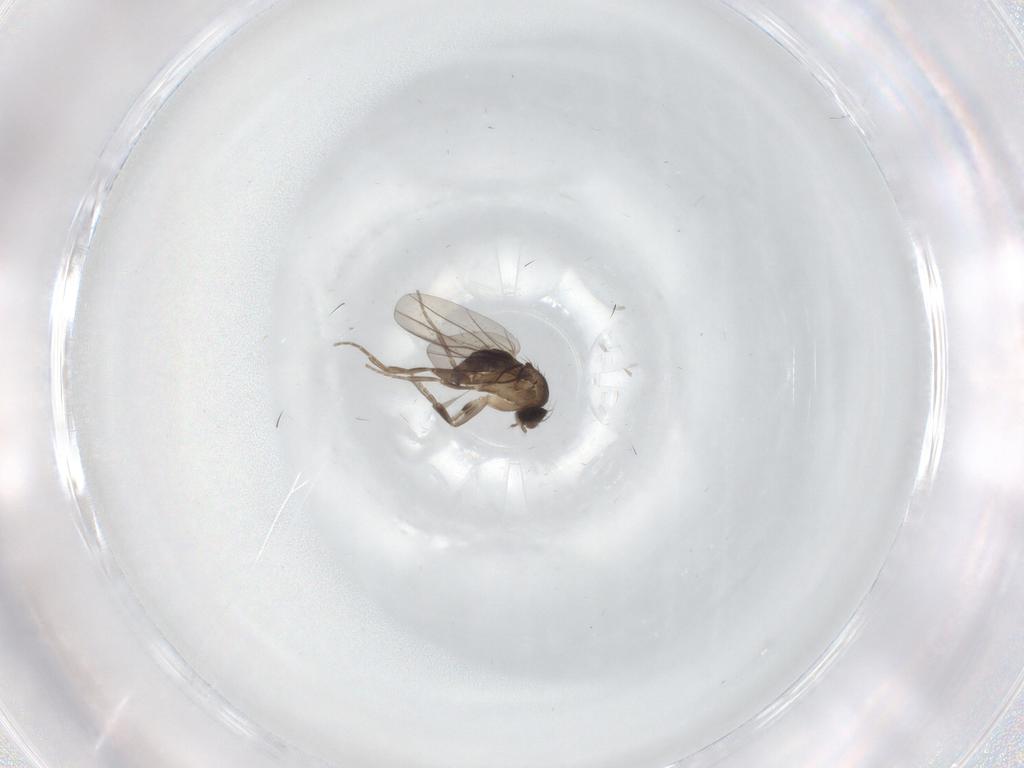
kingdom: Animalia
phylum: Arthropoda
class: Insecta
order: Diptera
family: Phoridae
